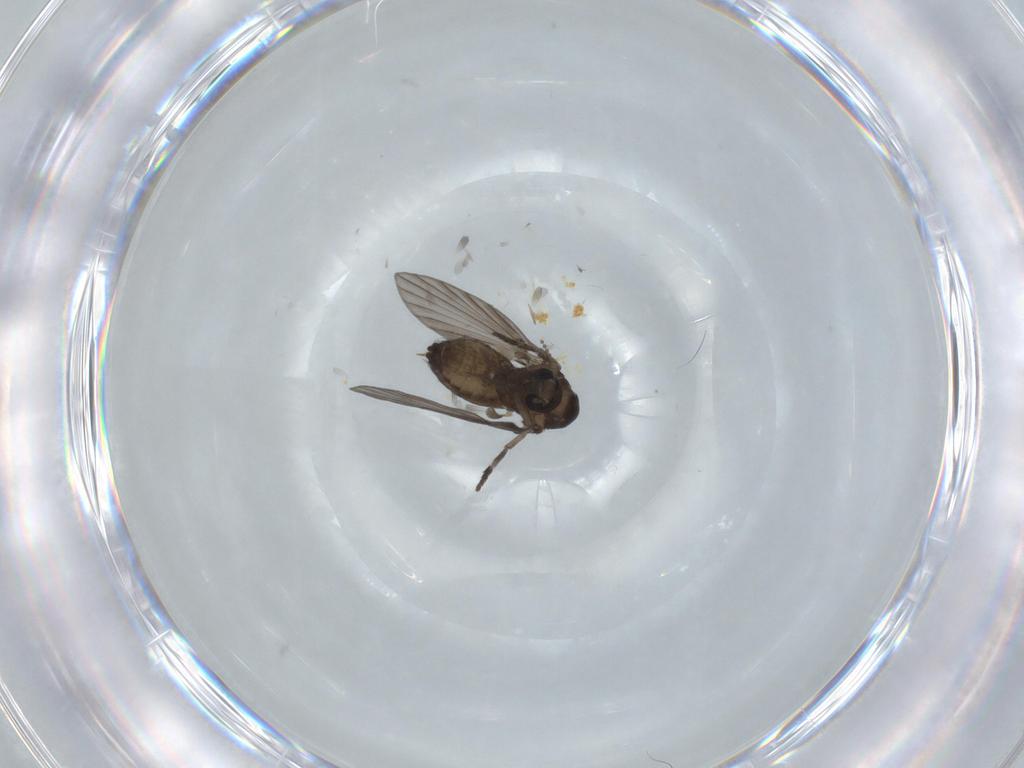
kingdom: Animalia
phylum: Arthropoda
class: Insecta
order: Diptera
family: Psychodidae
